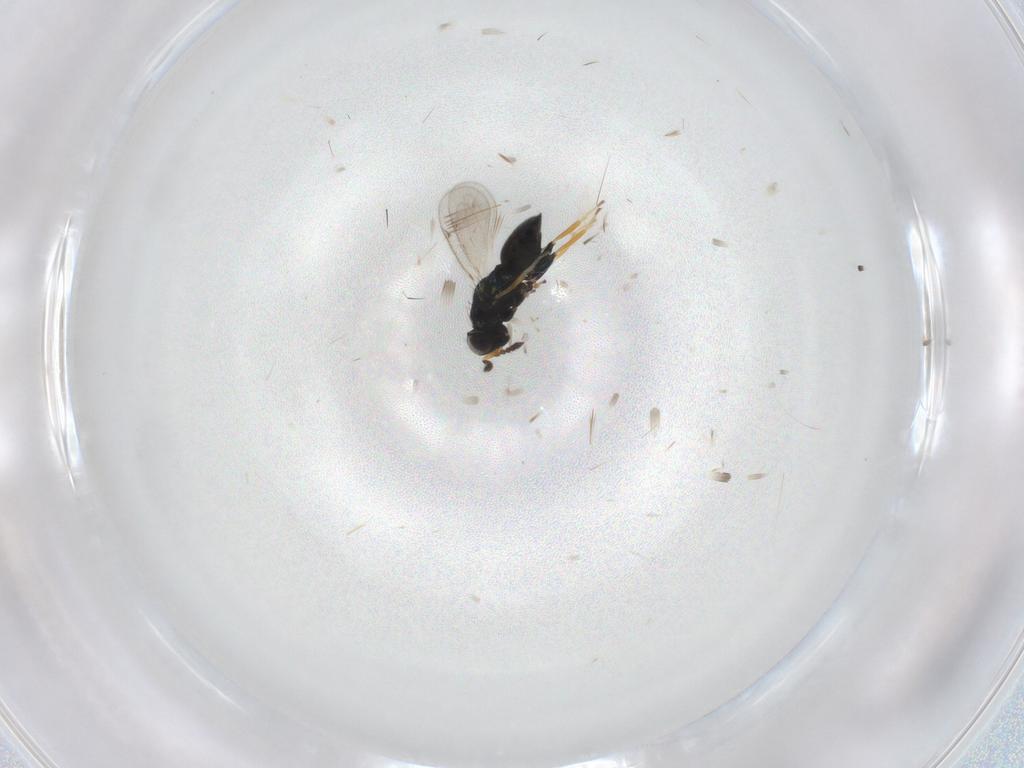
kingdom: Animalia
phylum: Arthropoda
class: Insecta
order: Hymenoptera
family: Eulophidae
